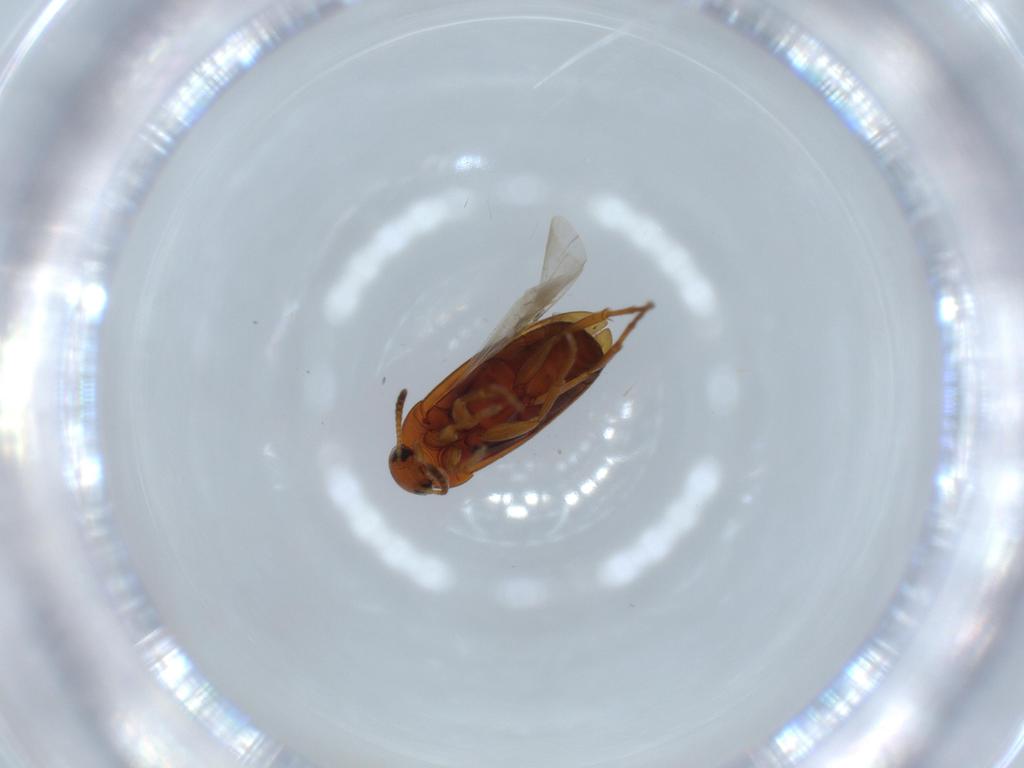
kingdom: Animalia
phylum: Arthropoda
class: Insecta
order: Coleoptera
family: Scraptiidae
